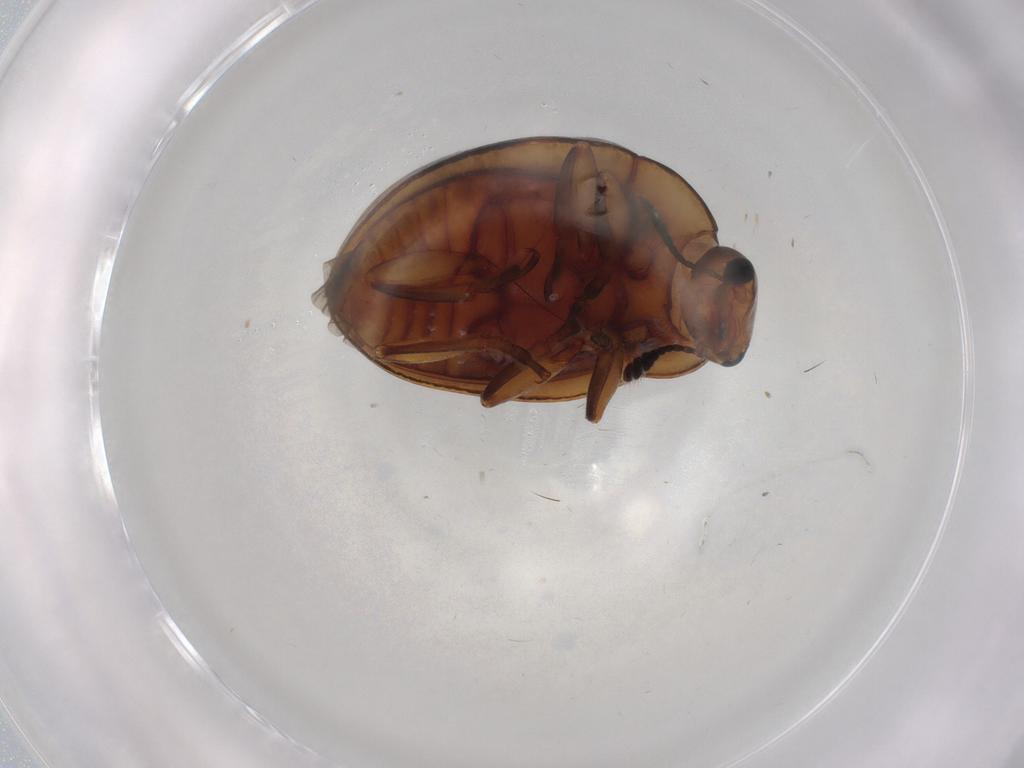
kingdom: Animalia
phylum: Arthropoda
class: Insecta
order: Coleoptera
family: Erotylidae
